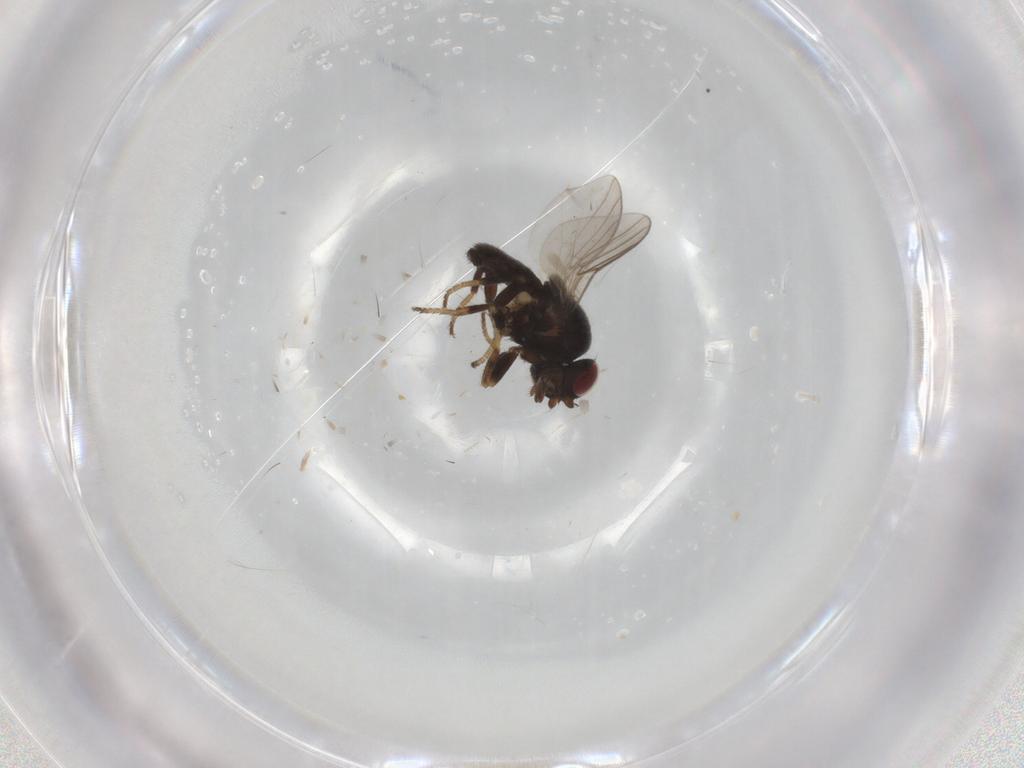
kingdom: Animalia
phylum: Arthropoda
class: Insecta
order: Diptera
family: Chloropidae
